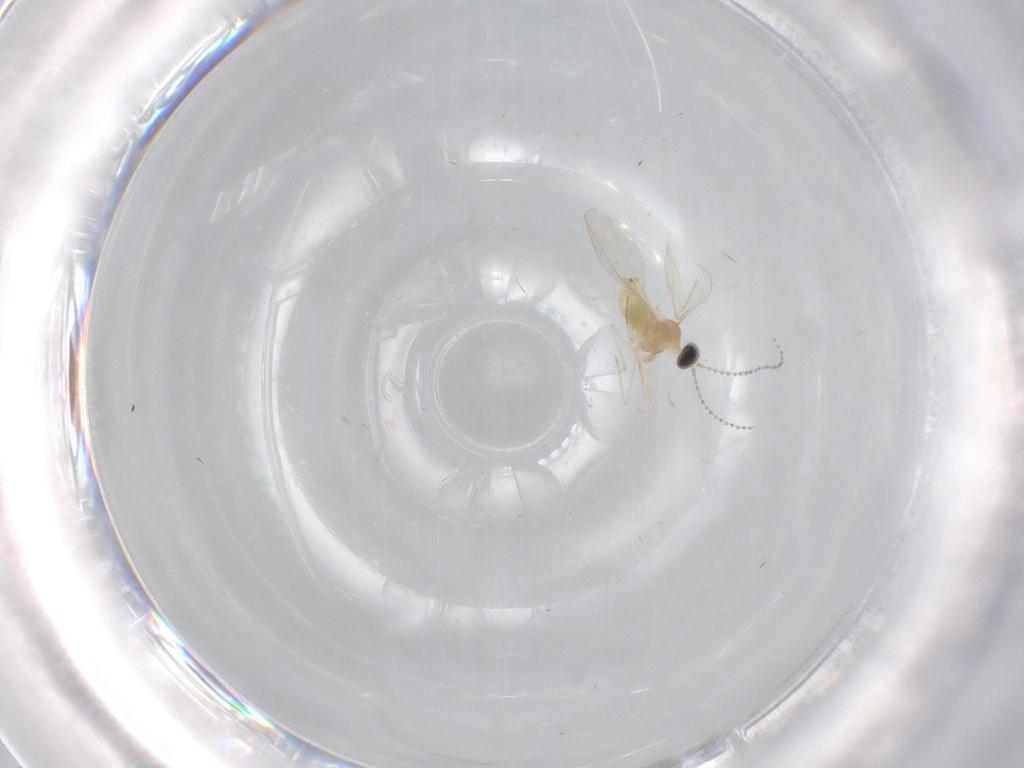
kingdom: Animalia
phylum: Arthropoda
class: Insecta
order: Diptera
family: Cecidomyiidae
